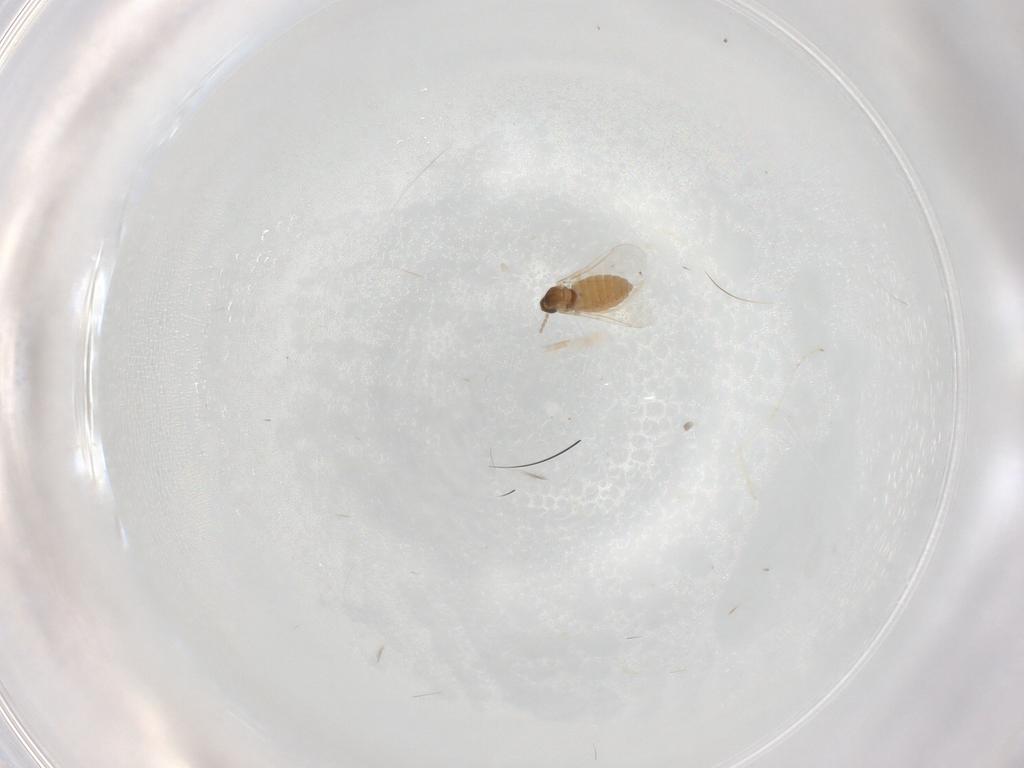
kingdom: Animalia
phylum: Arthropoda
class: Insecta
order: Diptera
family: Cecidomyiidae
